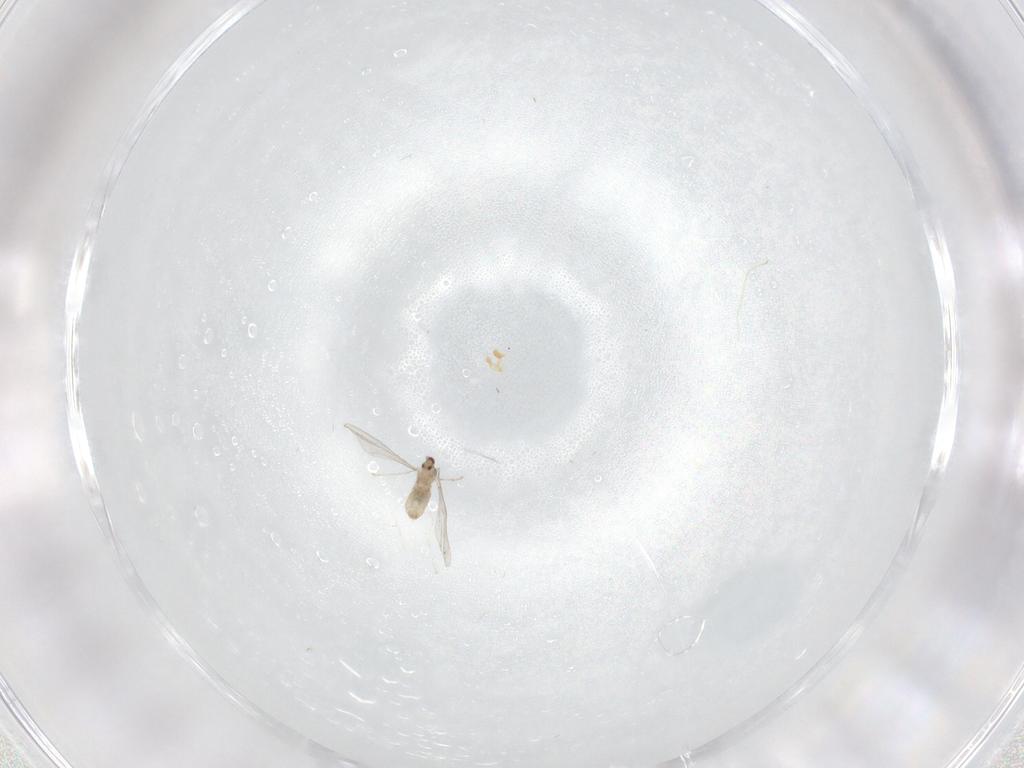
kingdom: Animalia
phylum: Arthropoda
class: Insecta
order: Diptera
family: Cecidomyiidae
